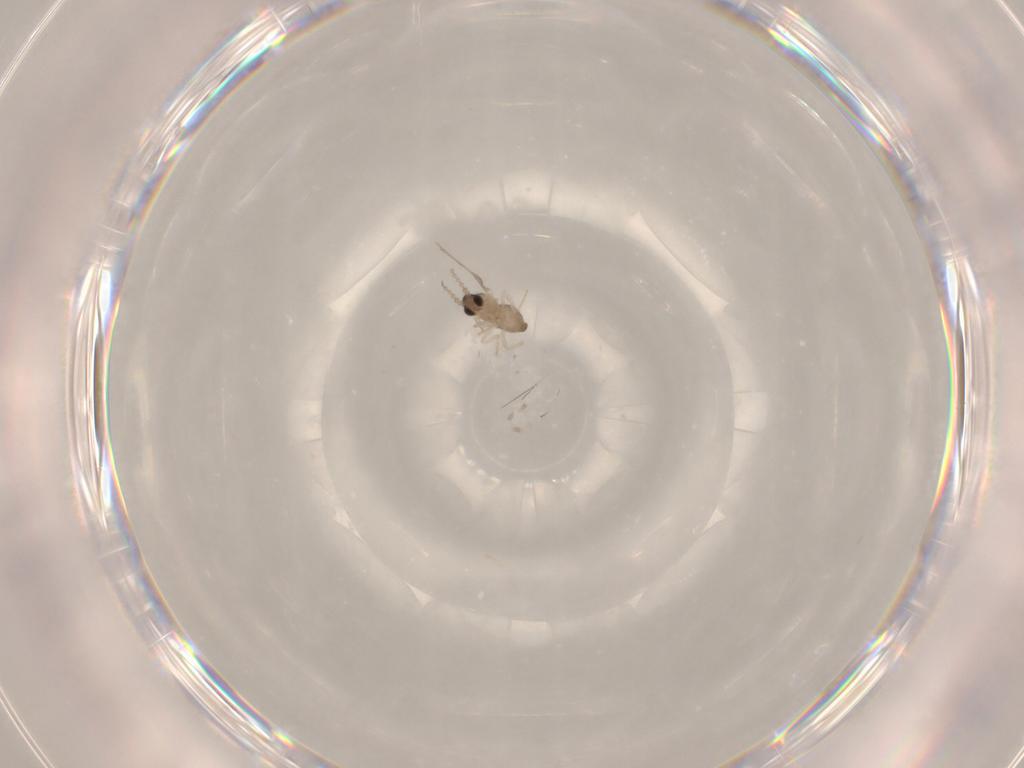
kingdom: Animalia
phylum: Arthropoda
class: Insecta
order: Diptera
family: Cecidomyiidae
